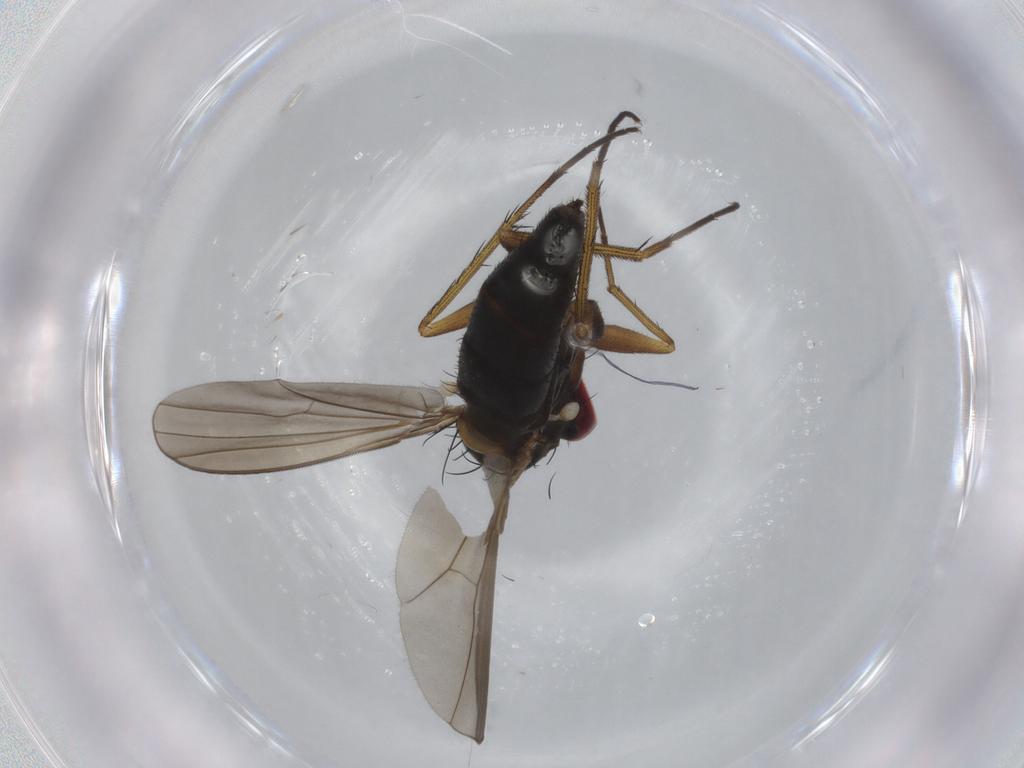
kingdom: Animalia
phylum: Arthropoda
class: Insecta
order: Diptera
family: Dolichopodidae
